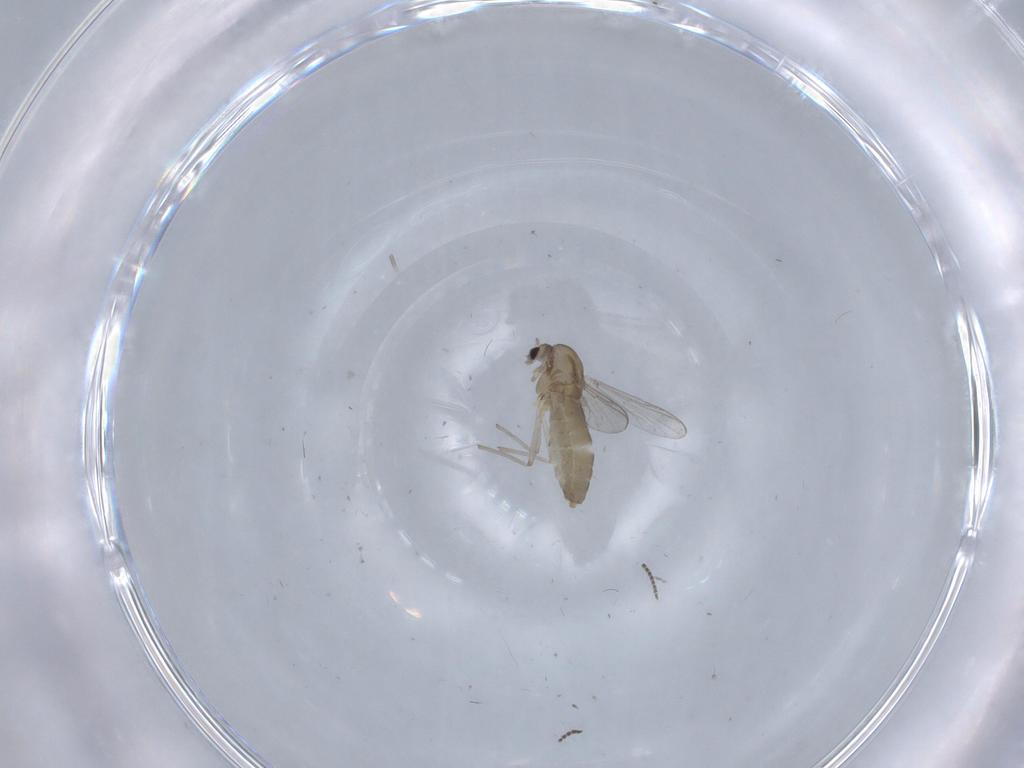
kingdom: Animalia
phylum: Arthropoda
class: Insecta
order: Diptera
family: Chironomidae
